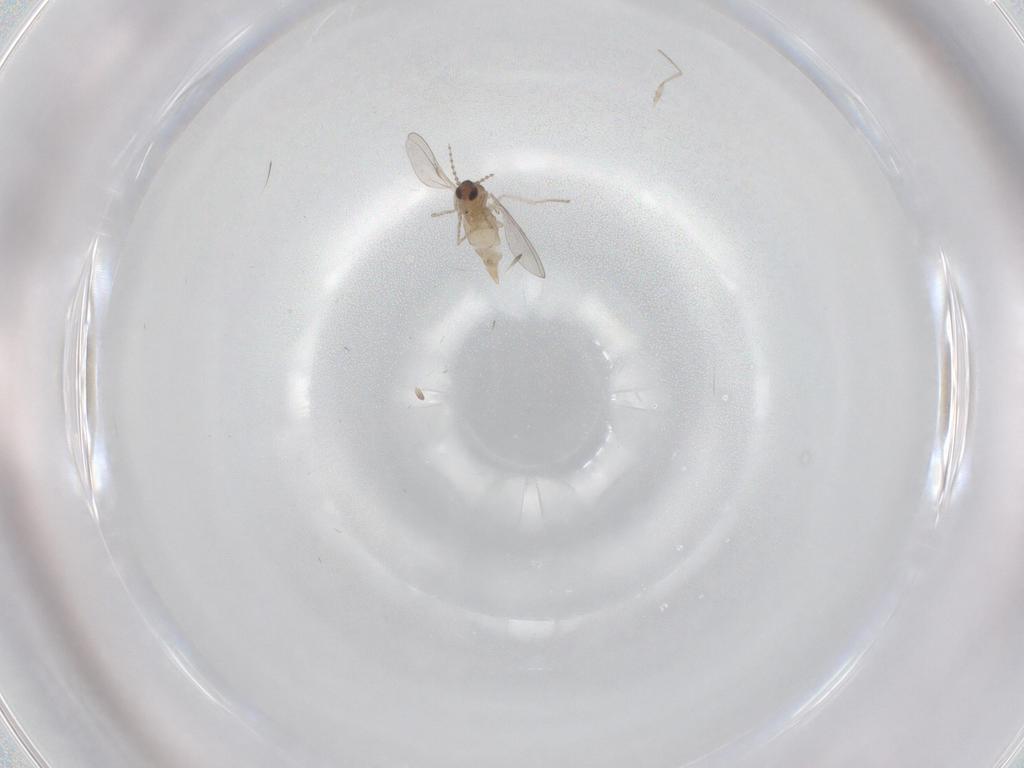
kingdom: Animalia
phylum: Arthropoda
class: Insecta
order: Diptera
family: Cecidomyiidae
